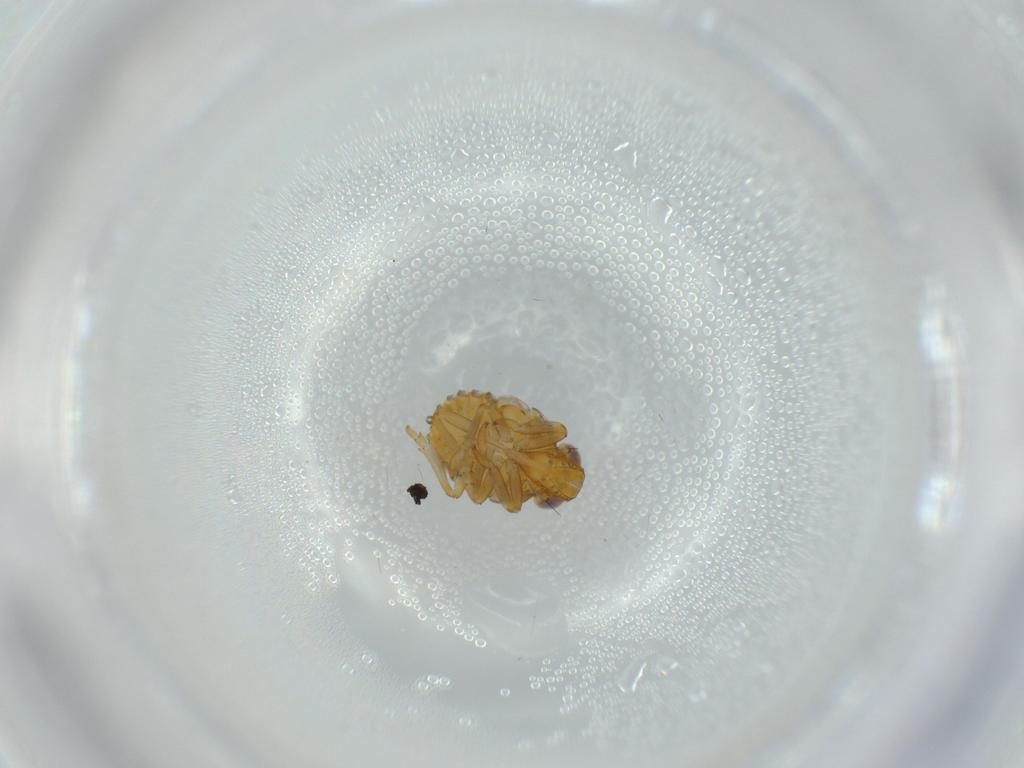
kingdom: Animalia
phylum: Arthropoda
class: Insecta
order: Hemiptera
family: Issidae
